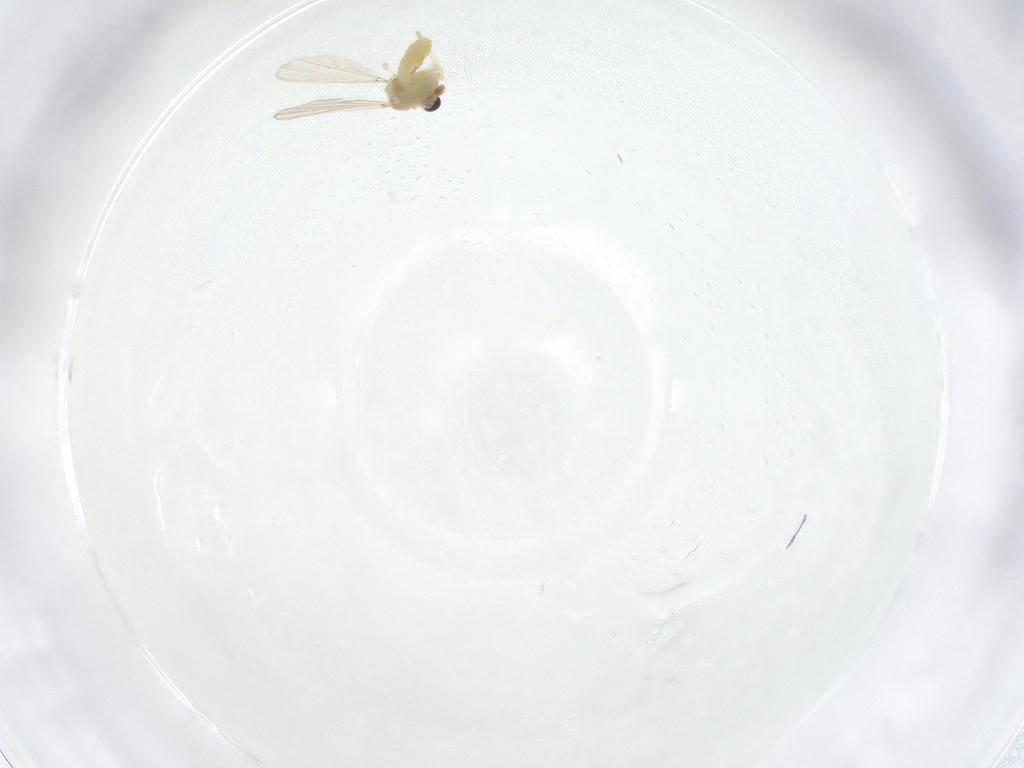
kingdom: Animalia
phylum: Arthropoda
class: Insecta
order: Diptera
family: Chironomidae
